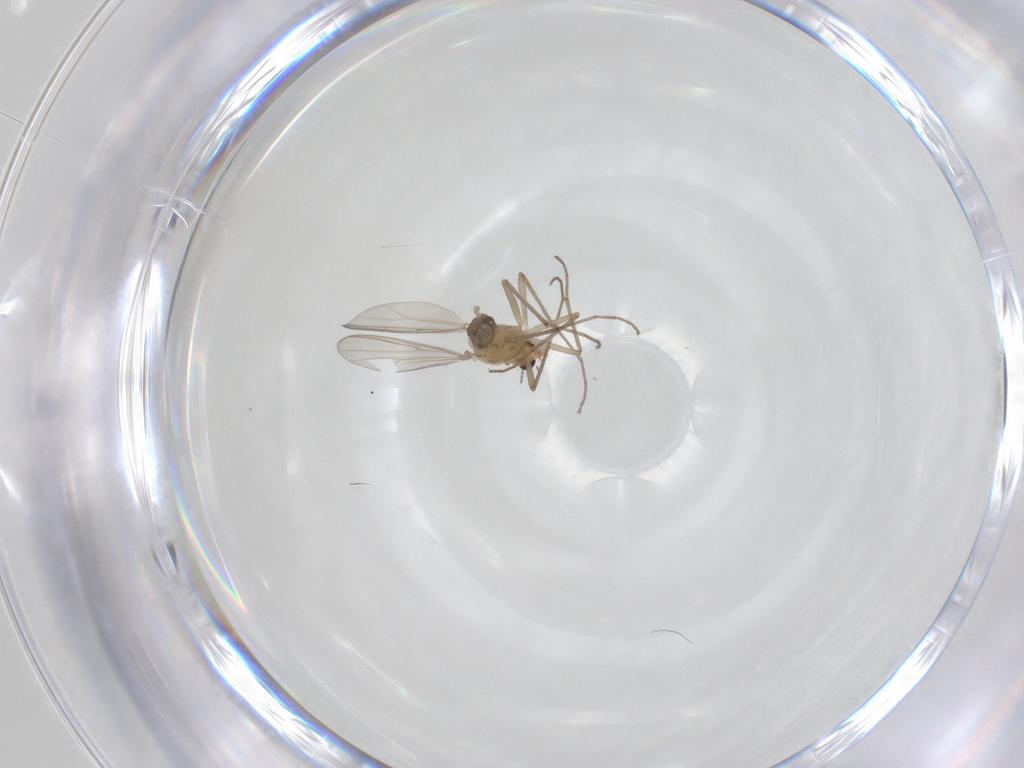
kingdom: Animalia
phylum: Arthropoda
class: Insecta
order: Diptera
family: Chironomidae
